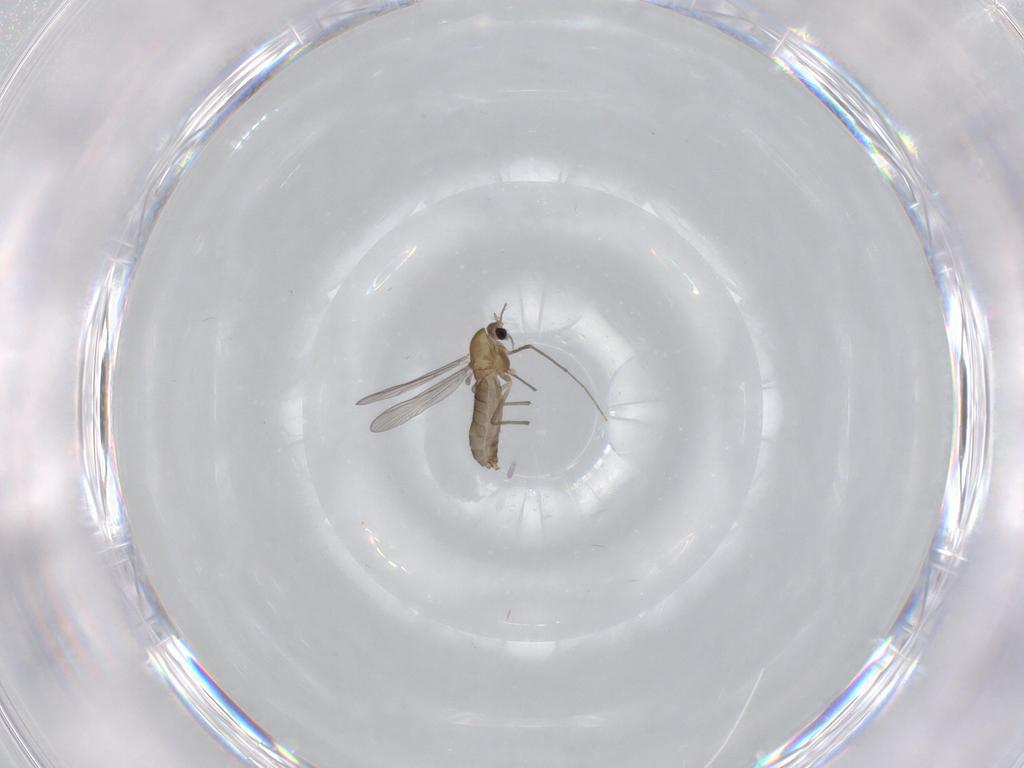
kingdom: Animalia
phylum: Arthropoda
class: Insecta
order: Diptera
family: Chironomidae
